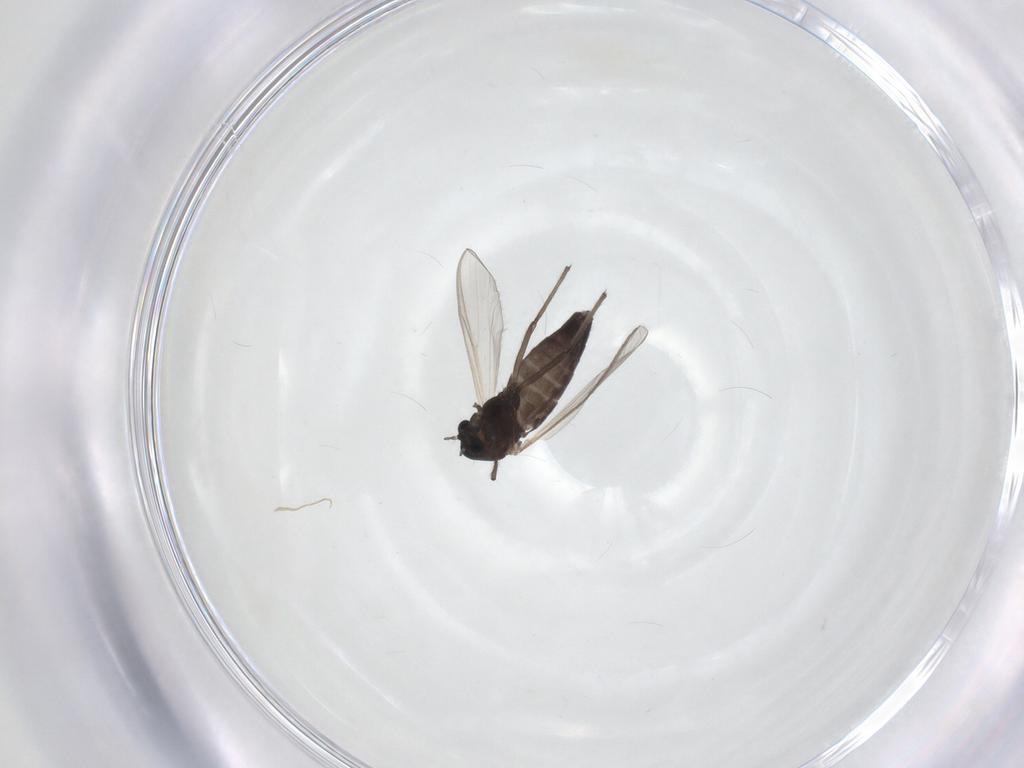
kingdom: Animalia
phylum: Arthropoda
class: Insecta
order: Diptera
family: Chironomidae
